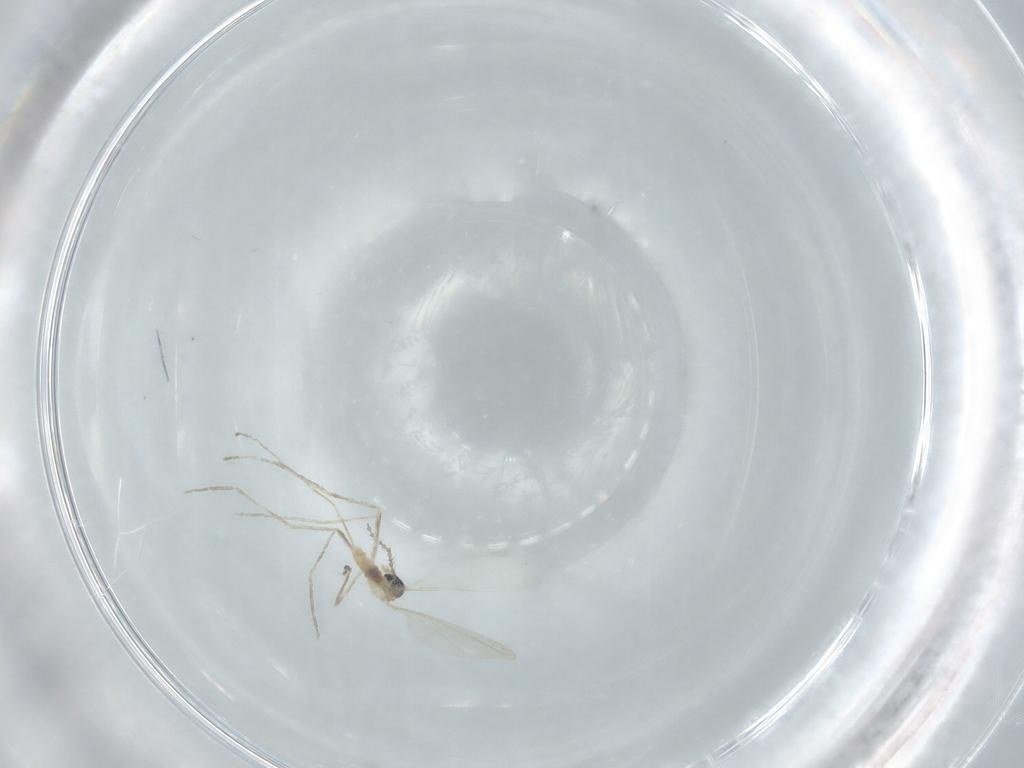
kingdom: Animalia
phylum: Arthropoda
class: Insecta
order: Diptera
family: Cecidomyiidae
